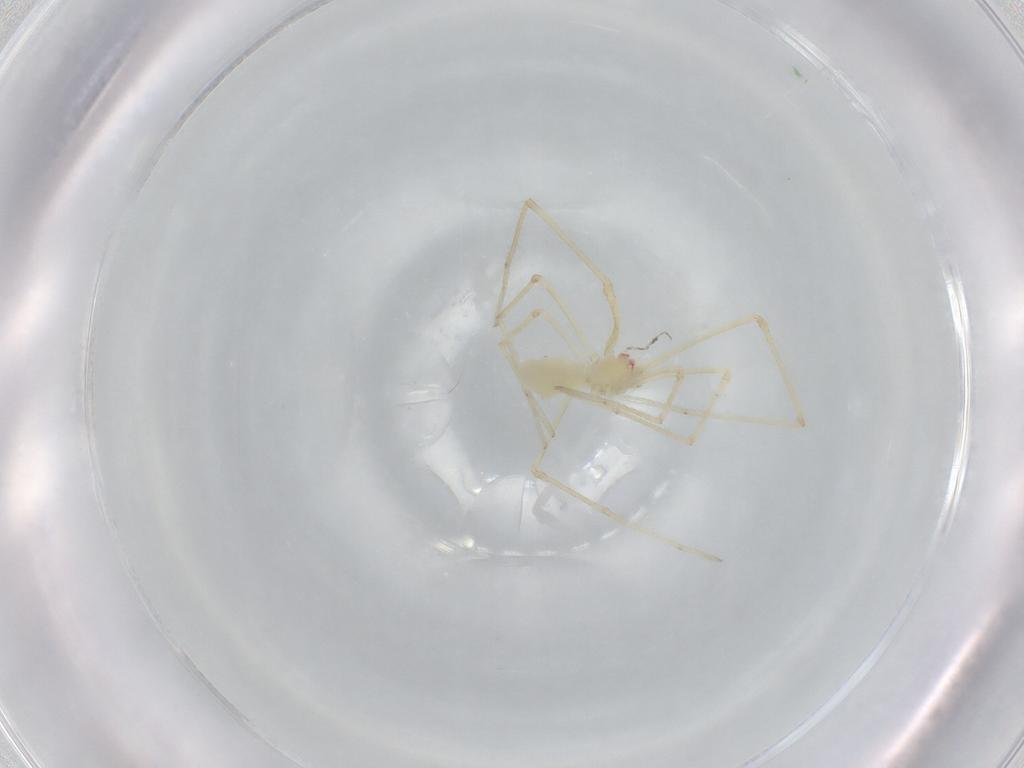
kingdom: Animalia
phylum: Arthropoda
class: Arachnida
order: Araneae
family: Pholcidae
